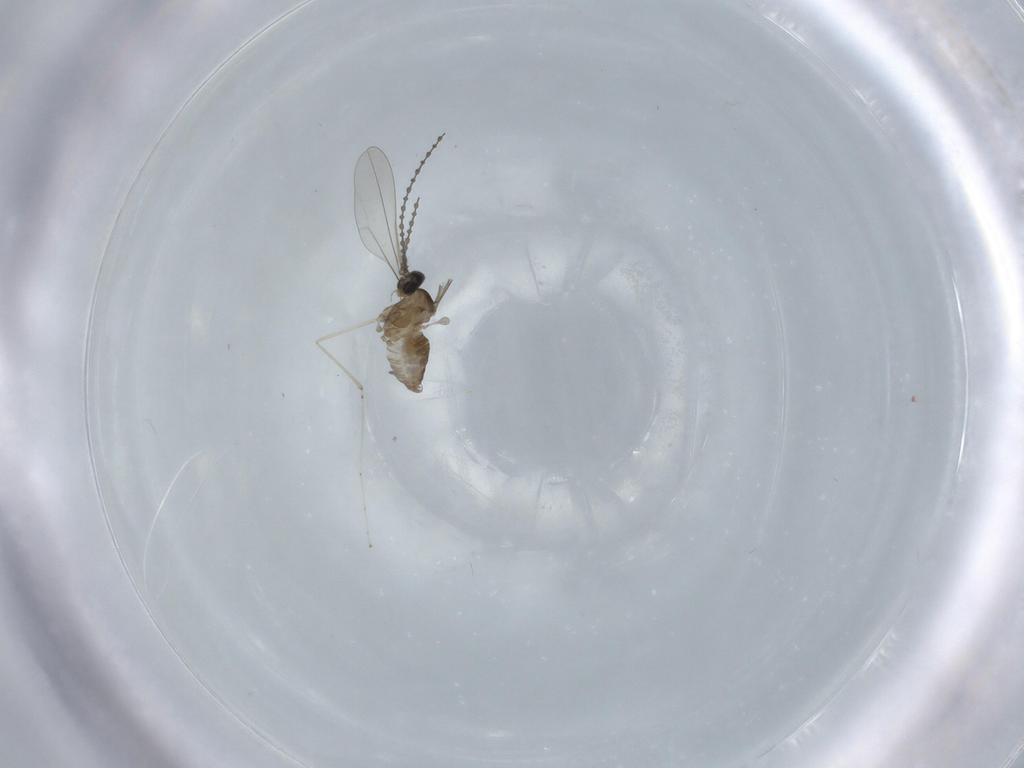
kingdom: Animalia
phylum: Arthropoda
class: Insecta
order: Diptera
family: Cecidomyiidae
